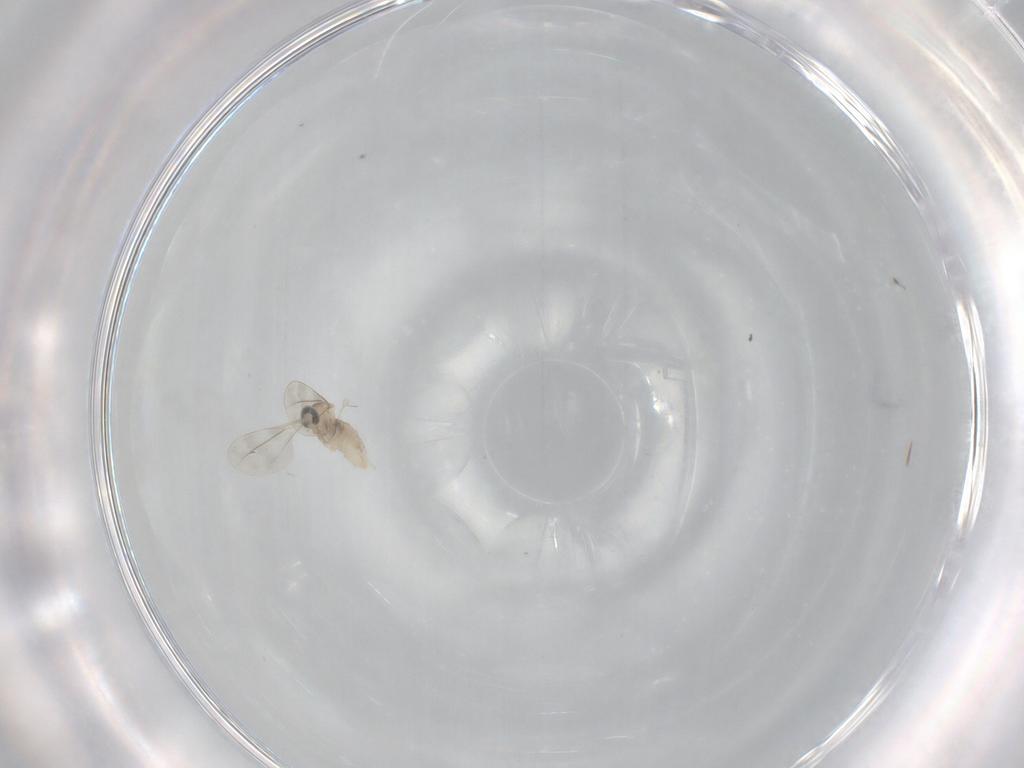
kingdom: Animalia
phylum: Arthropoda
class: Insecta
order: Diptera
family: Cecidomyiidae
